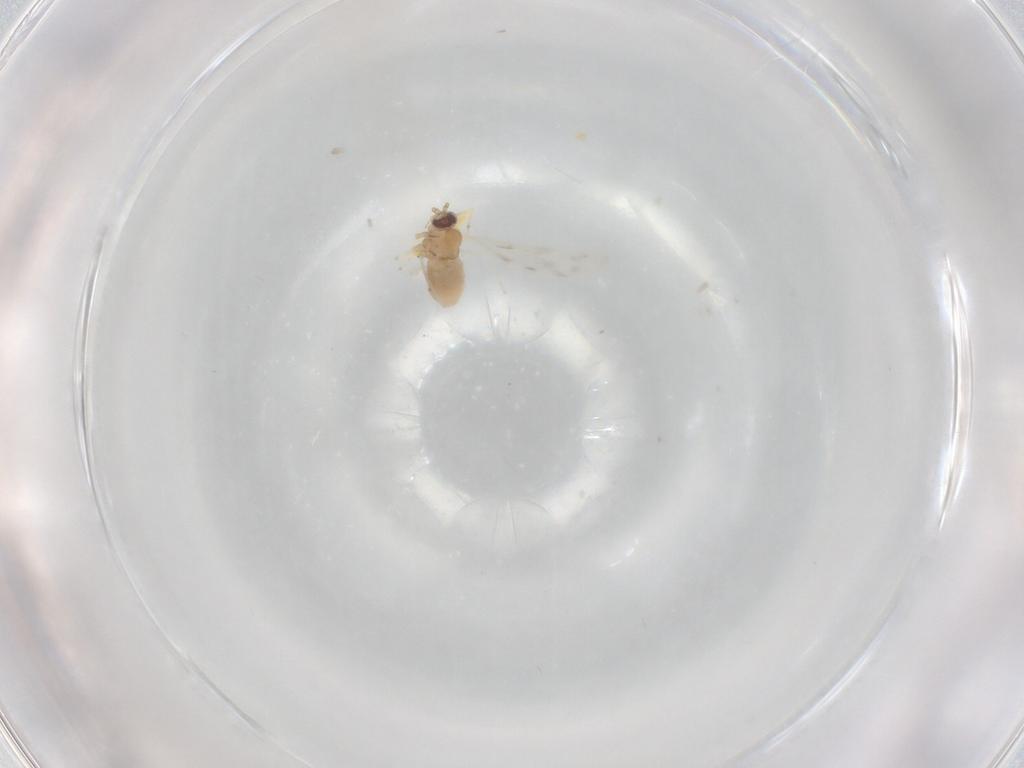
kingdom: Animalia
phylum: Arthropoda
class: Insecta
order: Diptera
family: Cecidomyiidae
